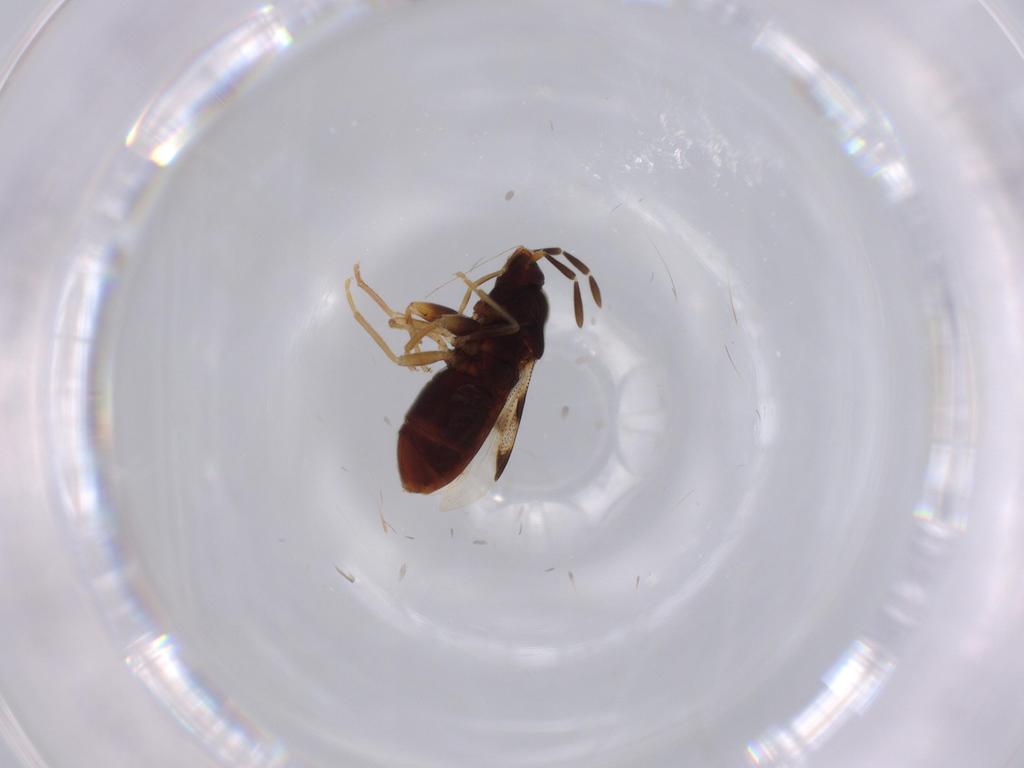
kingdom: Animalia
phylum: Arthropoda
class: Insecta
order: Hemiptera
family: Rhyparochromidae
